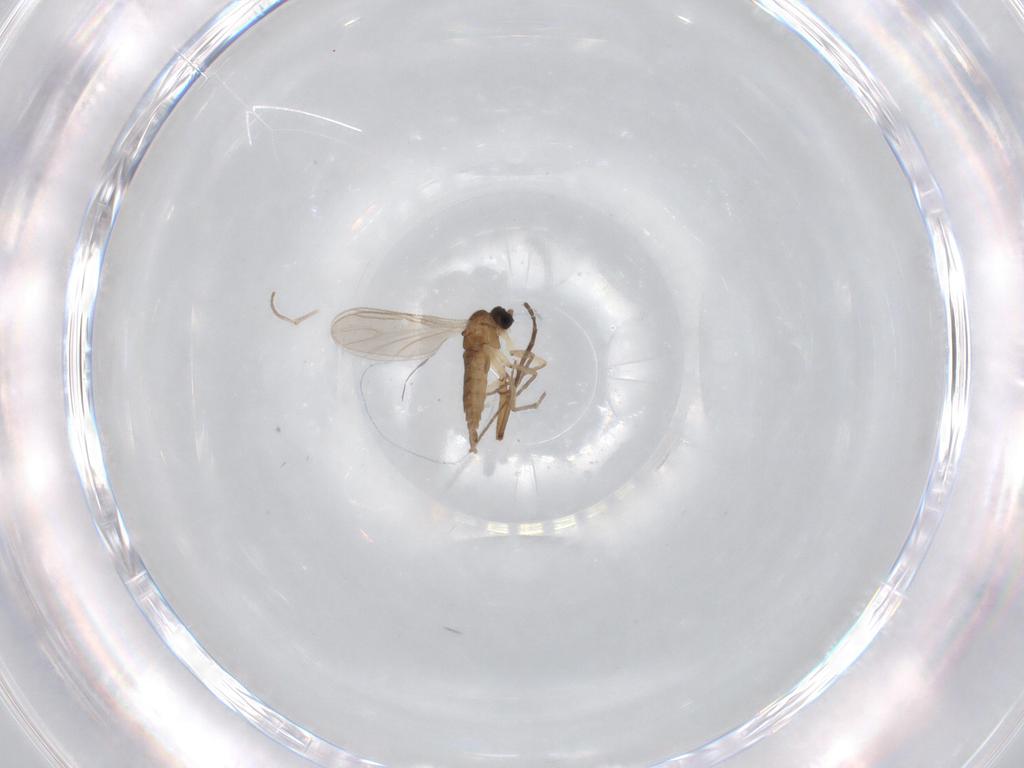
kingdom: Animalia
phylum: Arthropoda
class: Insecta
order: Diptera
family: Sciaridae
